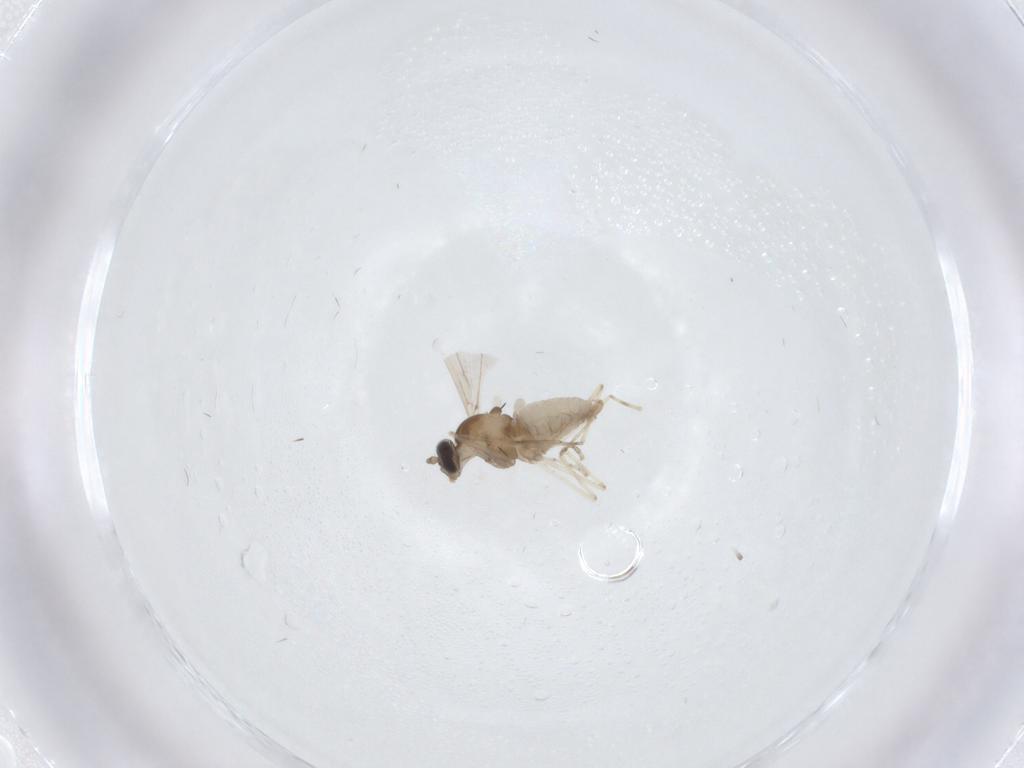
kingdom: Animalia
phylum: Arthropoda
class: Insecta
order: Diptera
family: Cecidomyiidae
